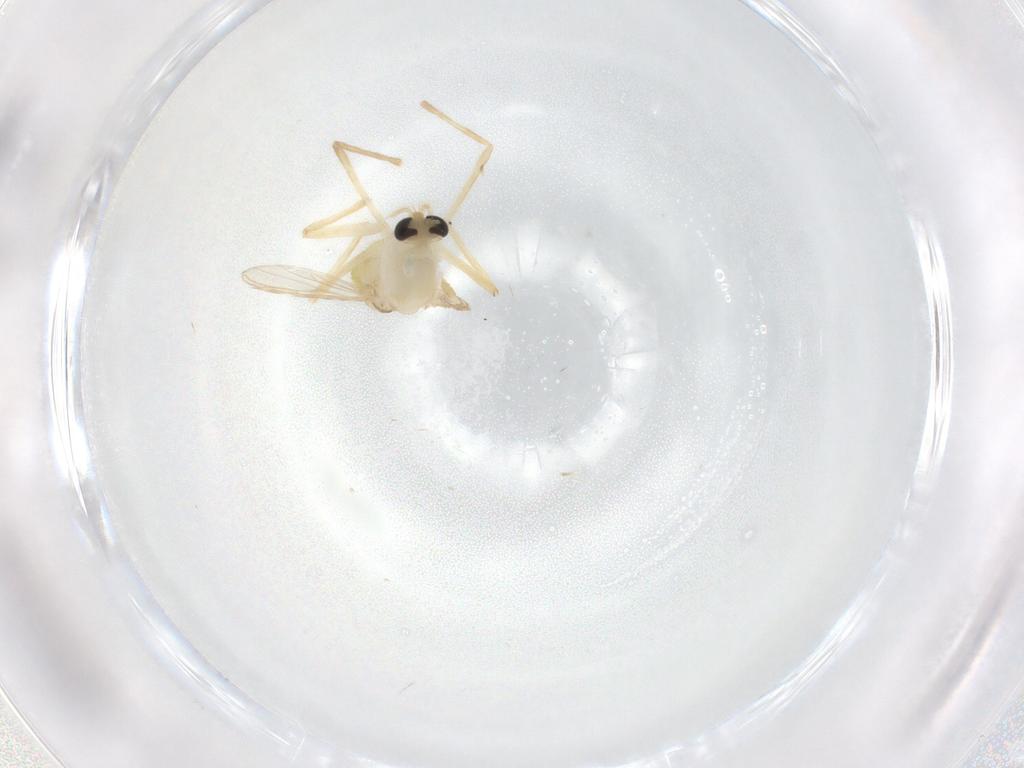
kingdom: Animalia
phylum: Arthropoda
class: Insecta
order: Diptera
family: Chironomidae
